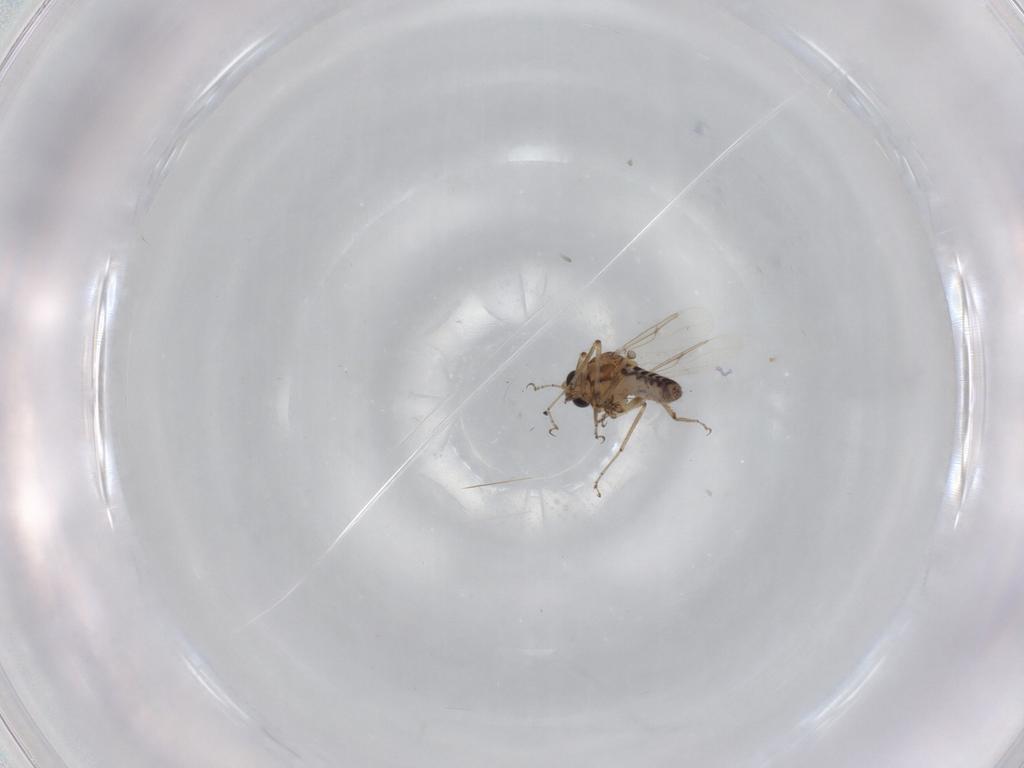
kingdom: Animalia
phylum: Arthropoda
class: Insecta
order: Diptera
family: Ceratopogonidae
